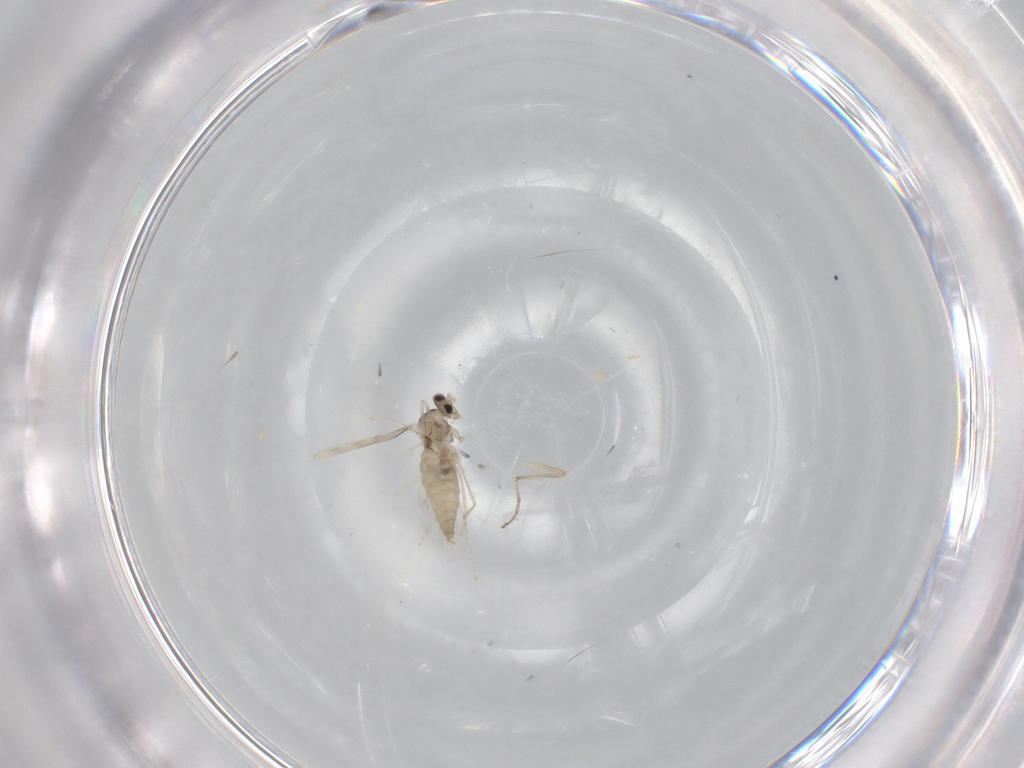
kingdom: Animalia
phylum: Arthropoda
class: Insecta
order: Diptera
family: Cecidomyiidae
